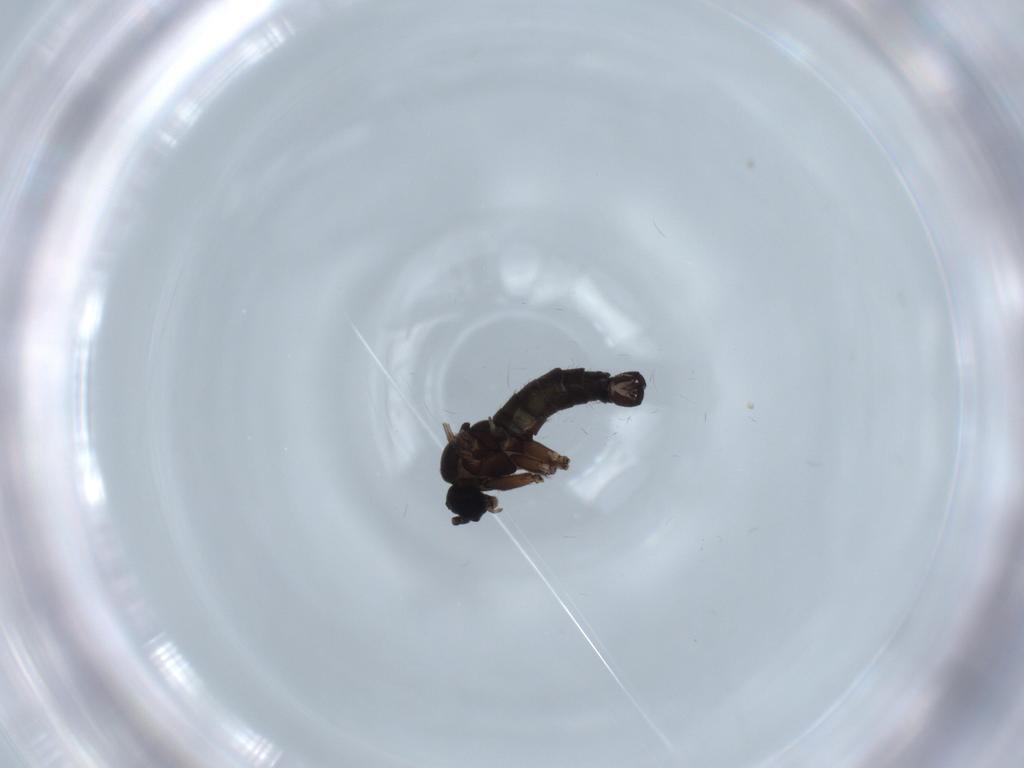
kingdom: Animalia
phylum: Arthropoda
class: Insecta
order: Diptera
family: Sciaridae
